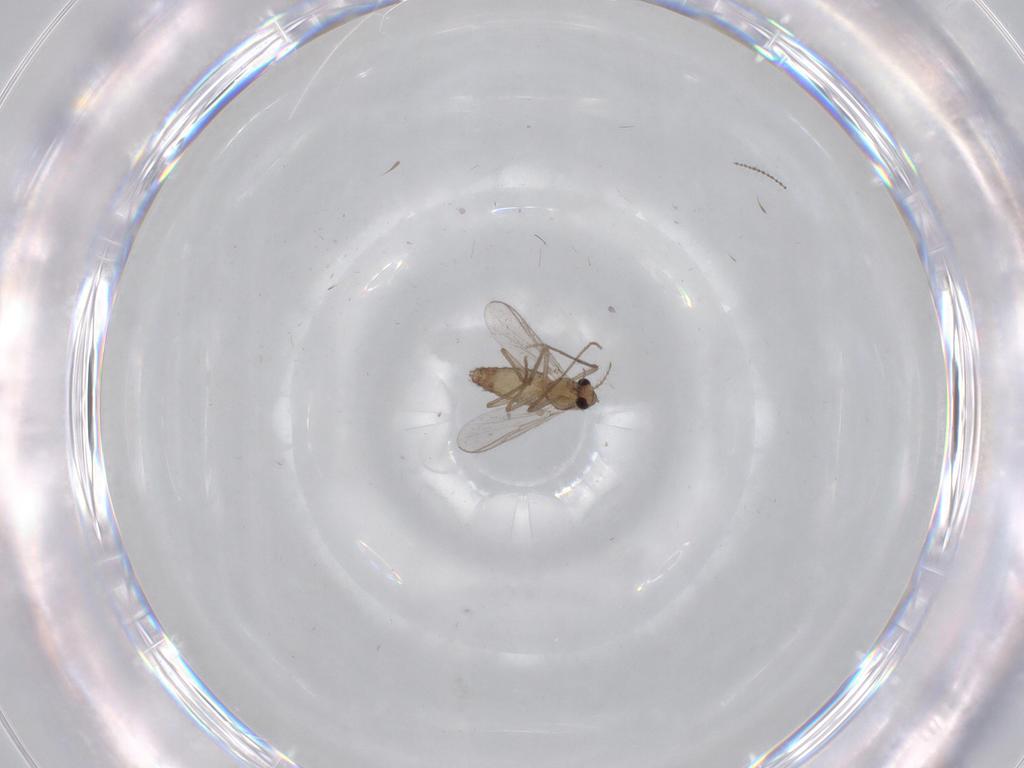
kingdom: Animalia
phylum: Arthropoda
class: Insecta
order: Diptera
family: Chironomidae
